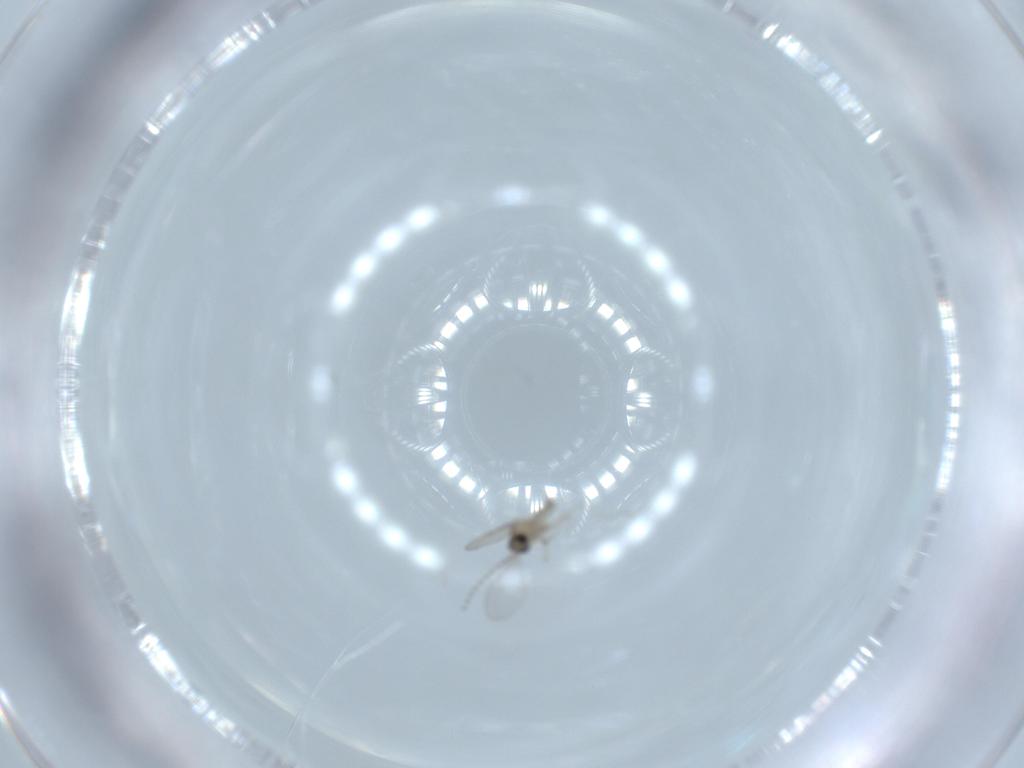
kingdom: Animalia
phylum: Arthropoda
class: Insecta
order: Diptera
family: Cecidomyiidae
